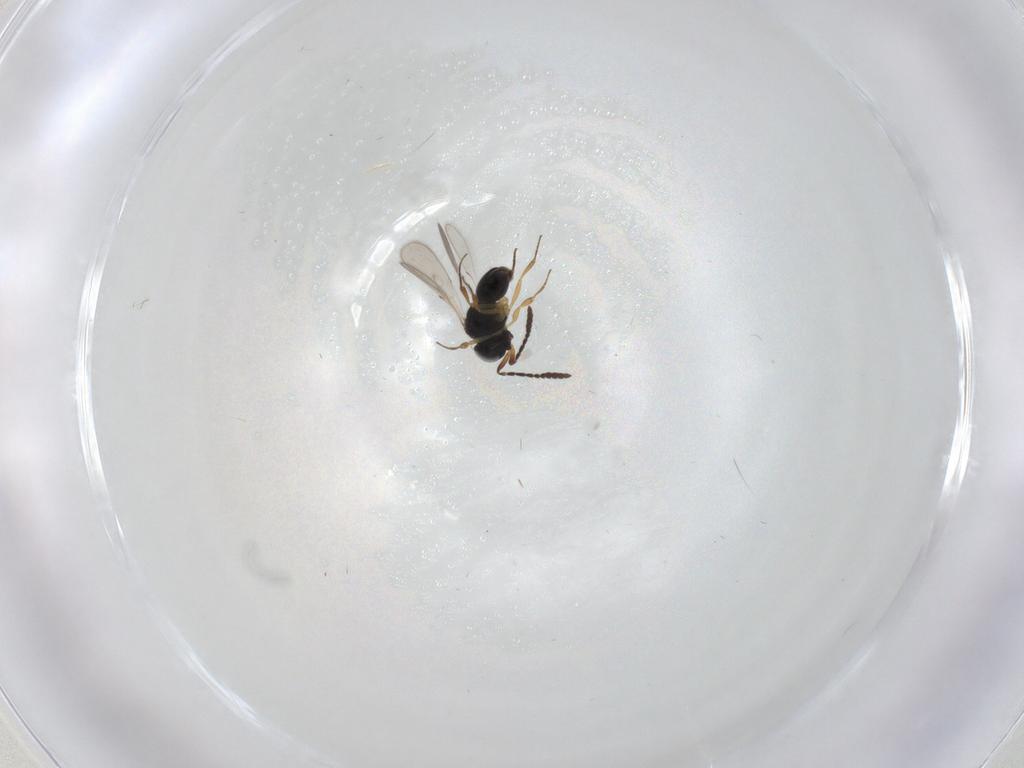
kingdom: Animalia
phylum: Arthropoda
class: Insecta
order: Hymenoptera
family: Scelionidae
